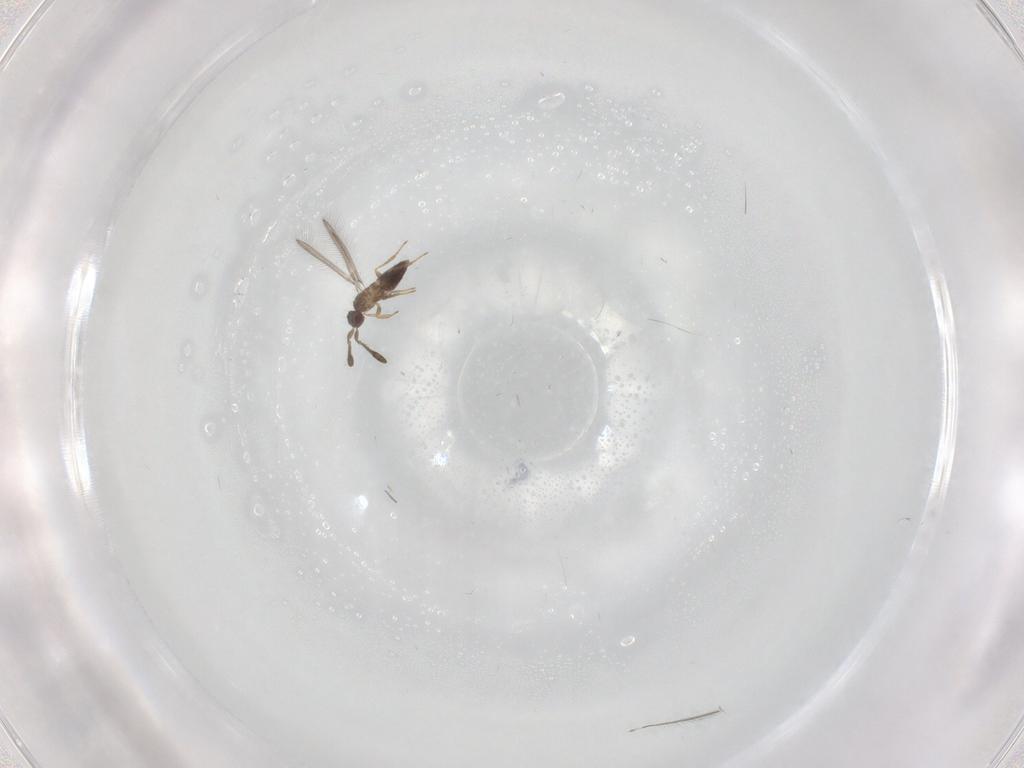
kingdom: Animalia
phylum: Arthropoda
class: Insecta
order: Hymenoptera
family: Mymaridae
